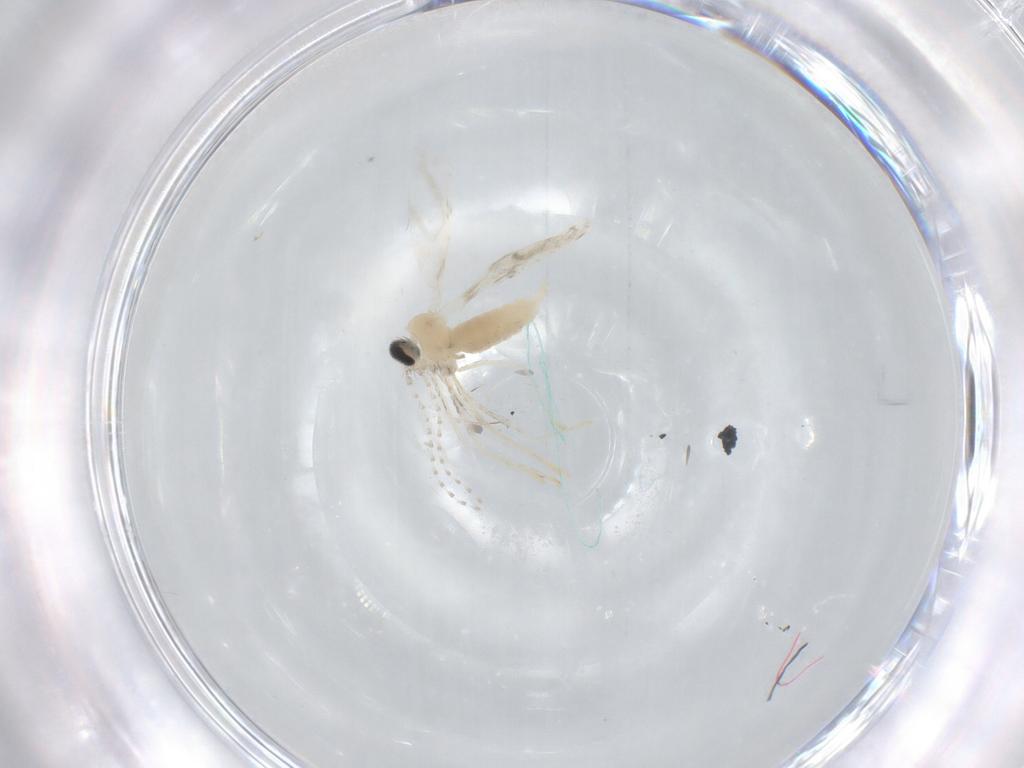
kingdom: Animalia
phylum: Arthropoda
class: Insecta
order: Diptera
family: Cecidomyiidae
